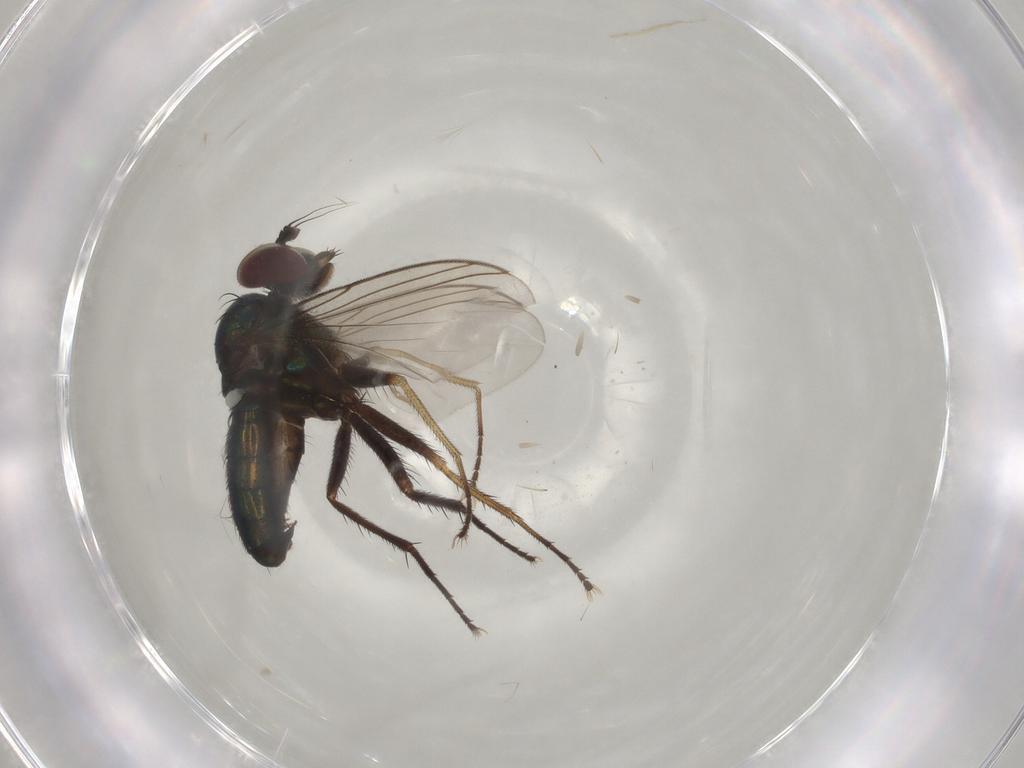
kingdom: Animalia
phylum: Arthropoda
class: Insecta
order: Diptera
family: Dolichopodidae
